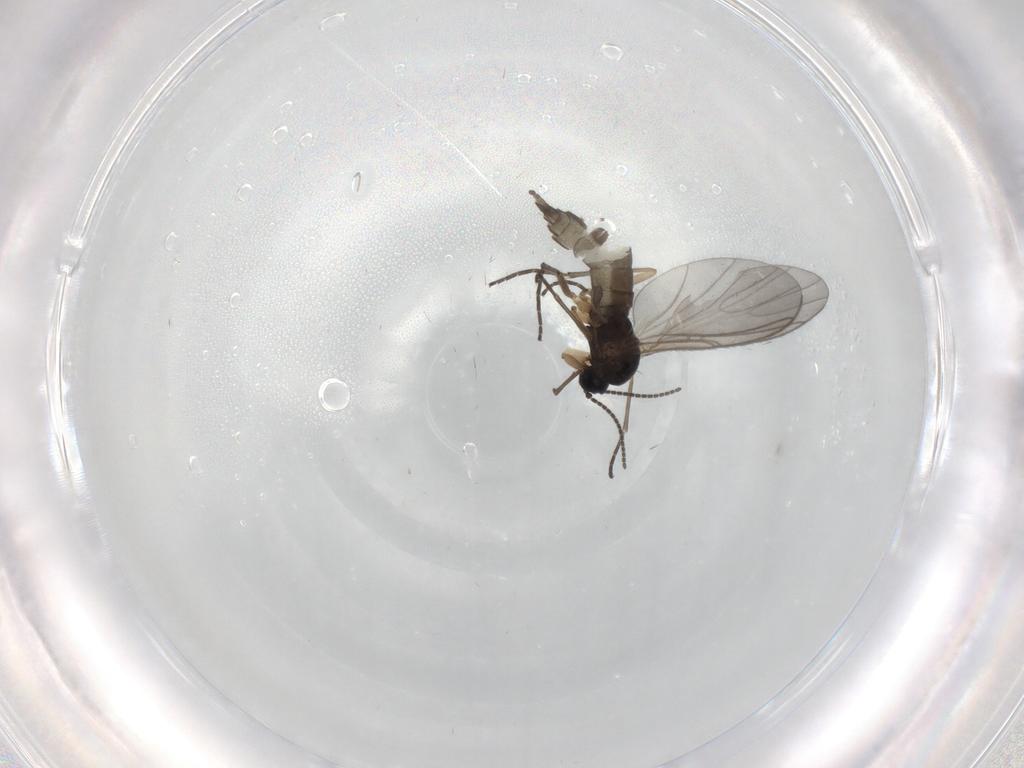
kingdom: Animalia
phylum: Arthropoda
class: Insecta
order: Diptera
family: Sciaridae
